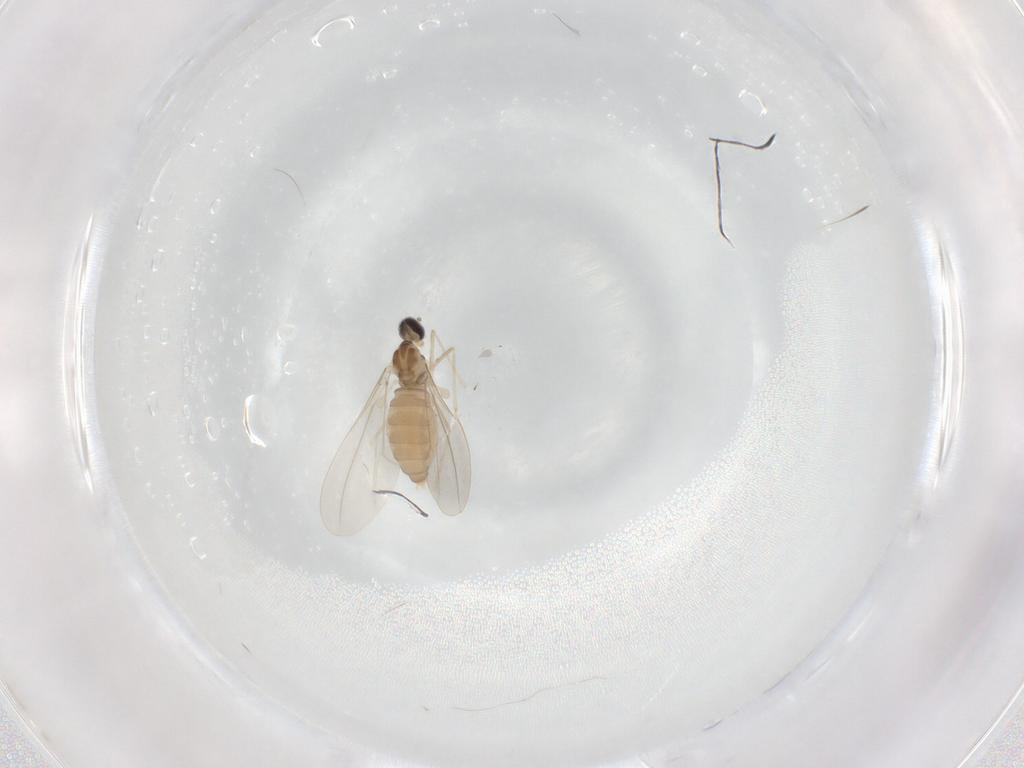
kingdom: Animalia
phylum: Arthropoda
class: Insecta
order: Diptera
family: Cecidomyiidae
